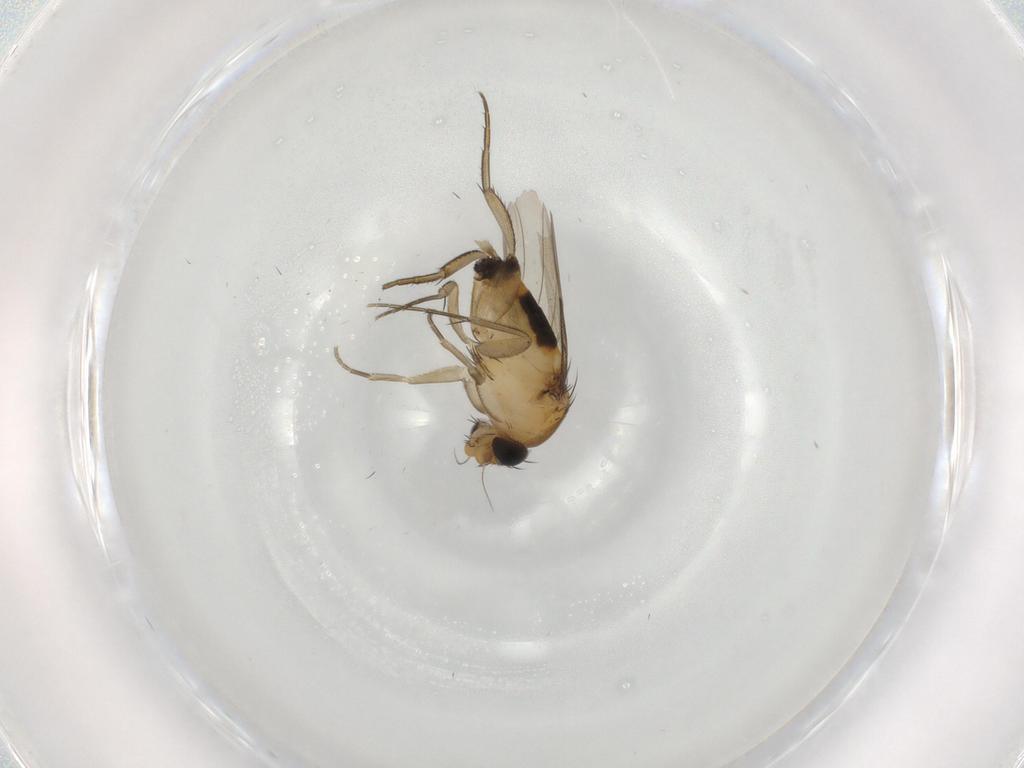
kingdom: Animalia
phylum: Arthropoda
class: Insecta
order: Diptera
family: Phoridae
